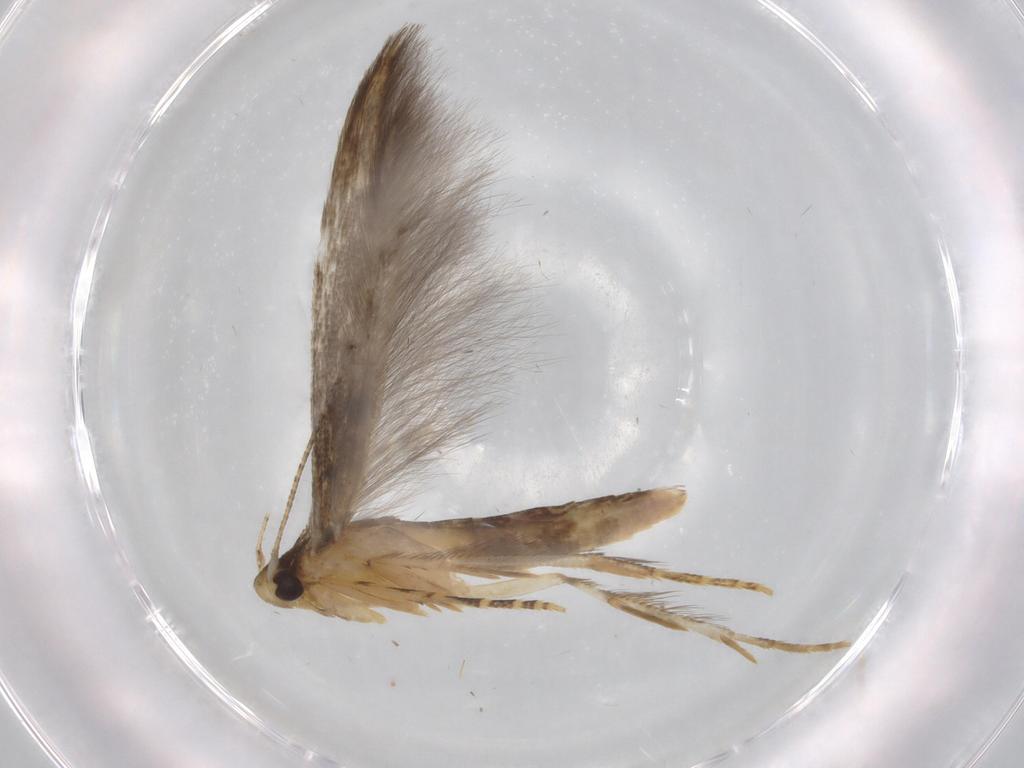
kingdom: Animalia
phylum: Arthropoda
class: Insecta
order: Lepidoptera
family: Gelechiidae
